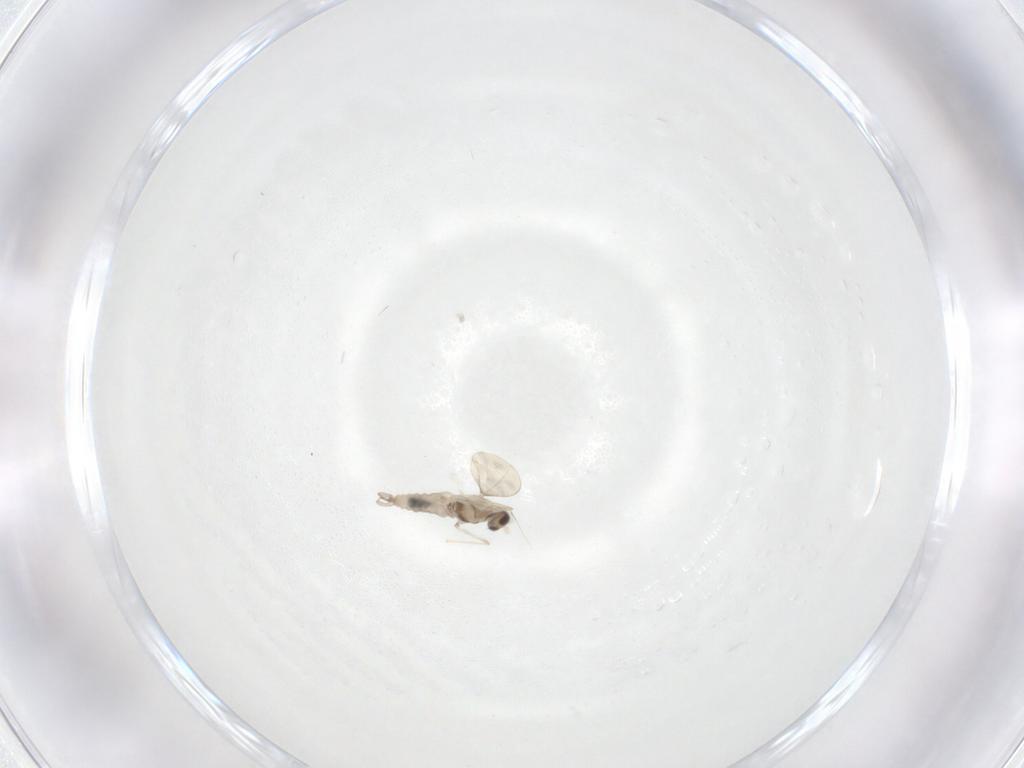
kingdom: Animalia
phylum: Arthropoda
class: Insecta
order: Diptera
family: Cecidomyiidae
